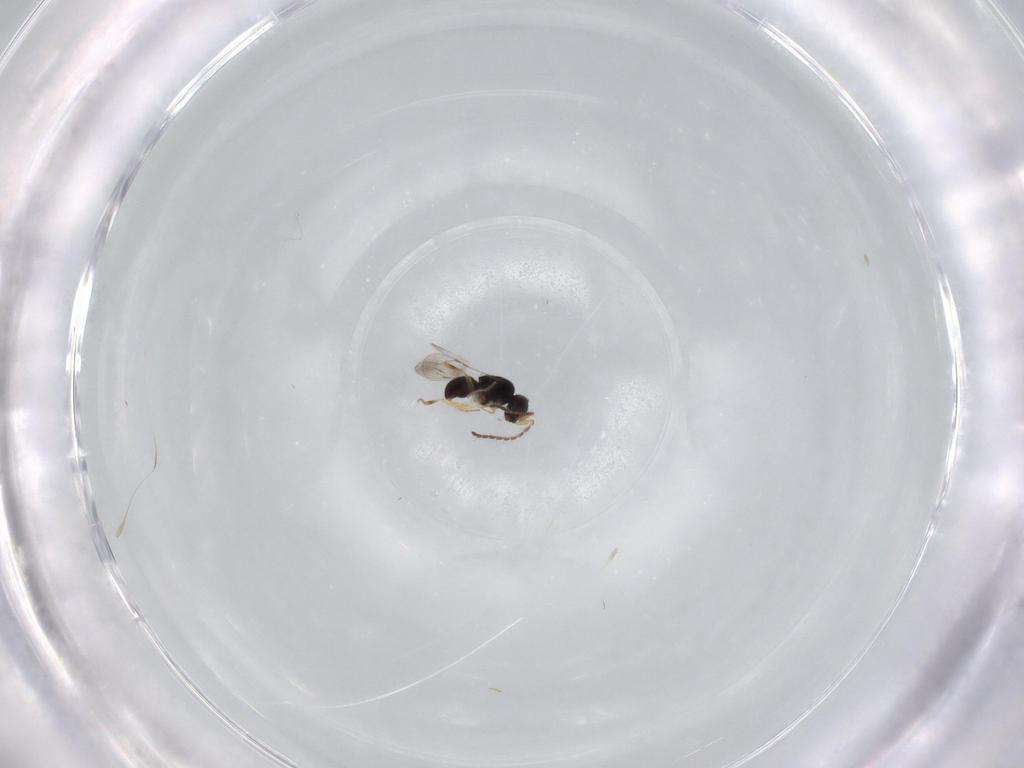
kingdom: Animalia
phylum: Arthropoda
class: Insecta
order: Hymenoptera
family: Ceraphronidae
